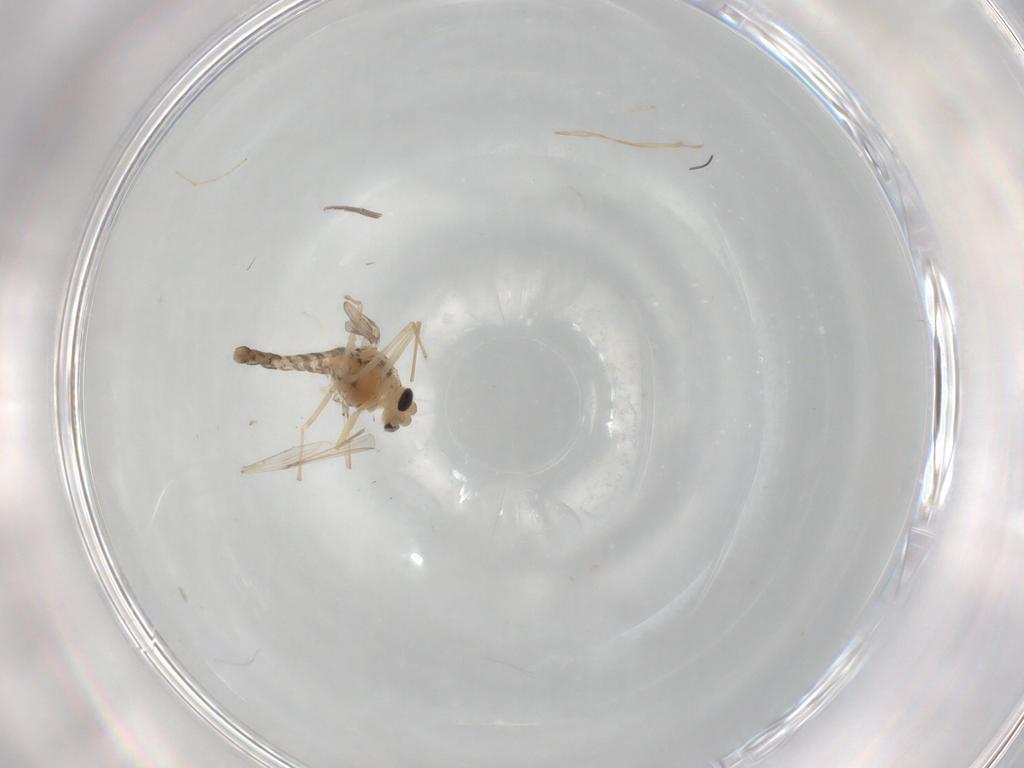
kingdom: Animalia
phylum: Arthropoda
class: Insecta
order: Diptera
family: Chironomidae
